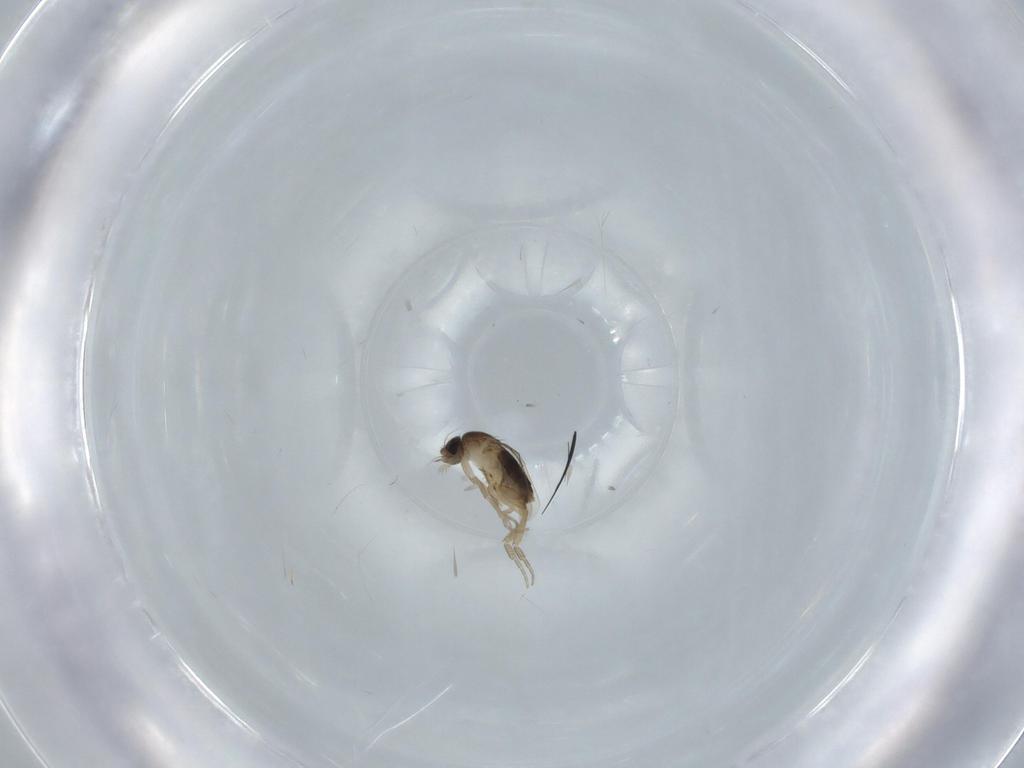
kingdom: Animalia
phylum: Arthropoda
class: Insecta
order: Diptera
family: Phoridae
